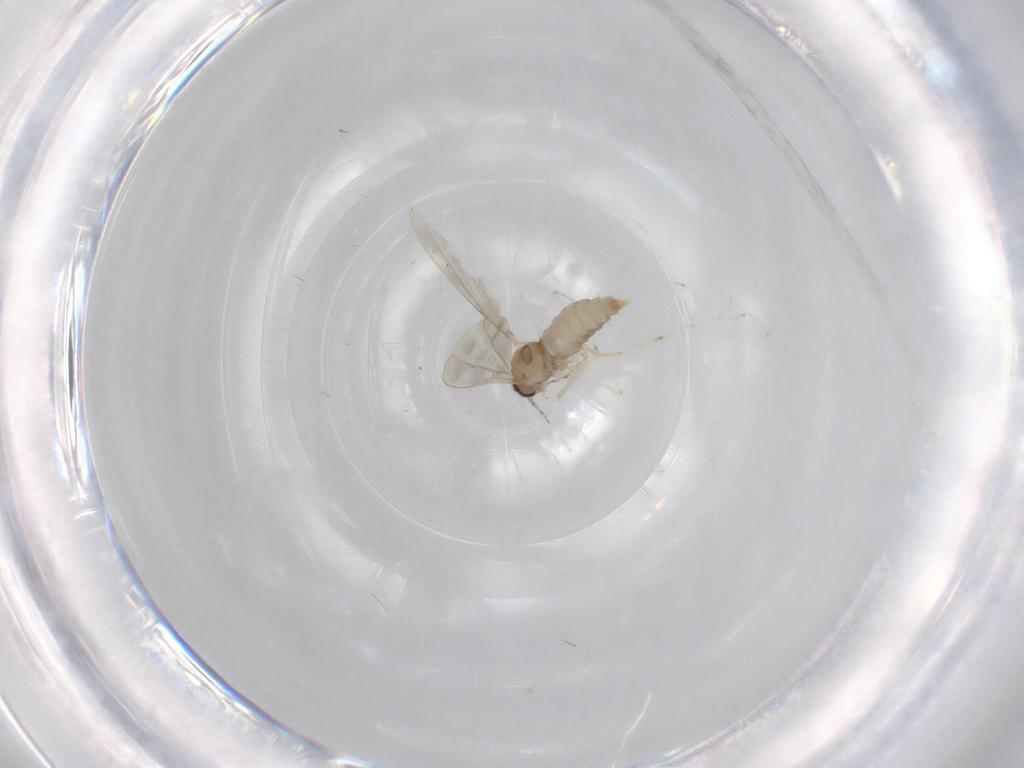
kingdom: Animalia
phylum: Arthropoda
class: Insecta
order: Diptera
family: Cecidomyiidae
